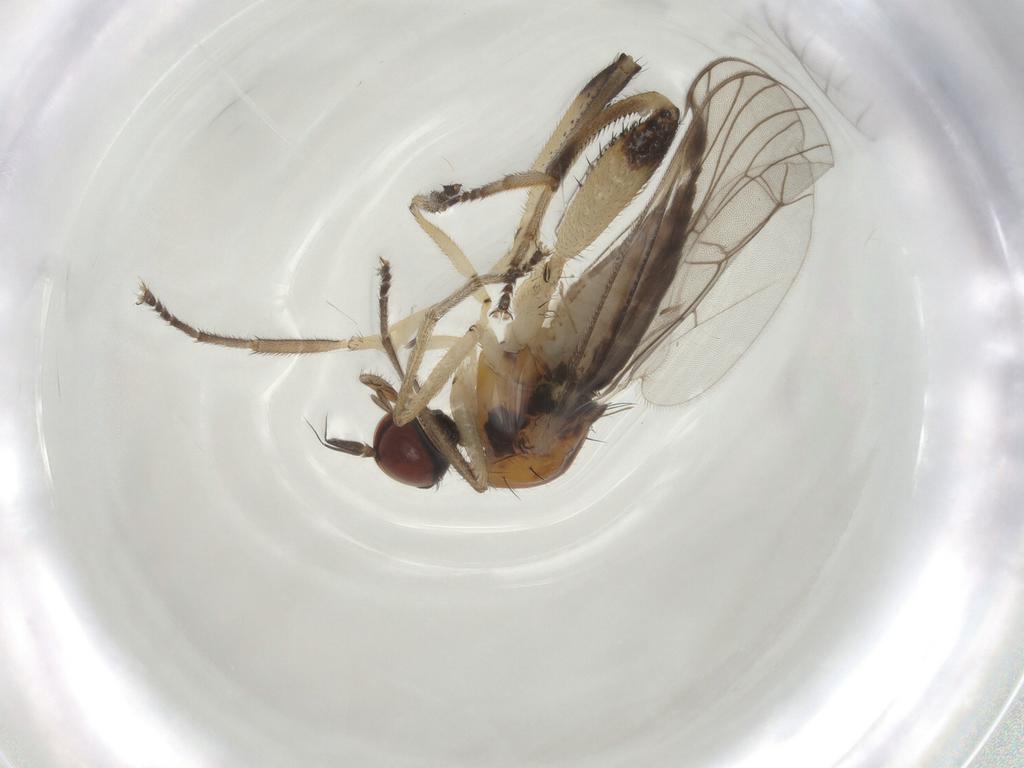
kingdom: Animalia
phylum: Arthropoda
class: Insecta
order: Diptera
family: Hybotidae
